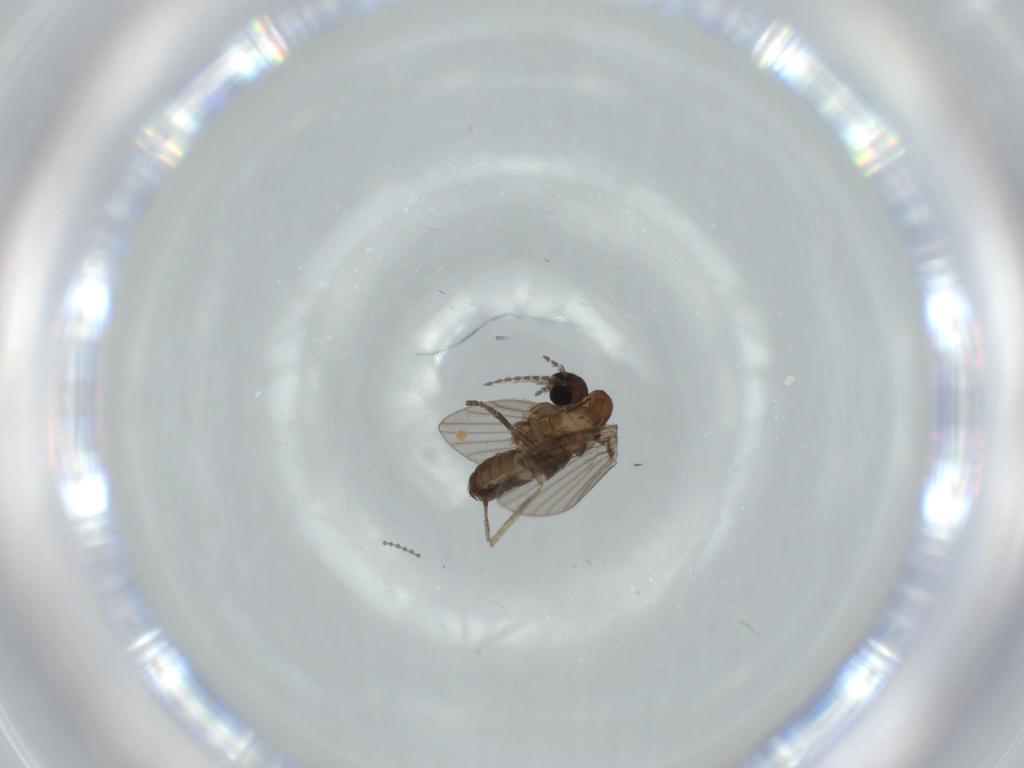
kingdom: Animalia
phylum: Arthropoda
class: Insecta
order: Diptera
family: Psychodidae
